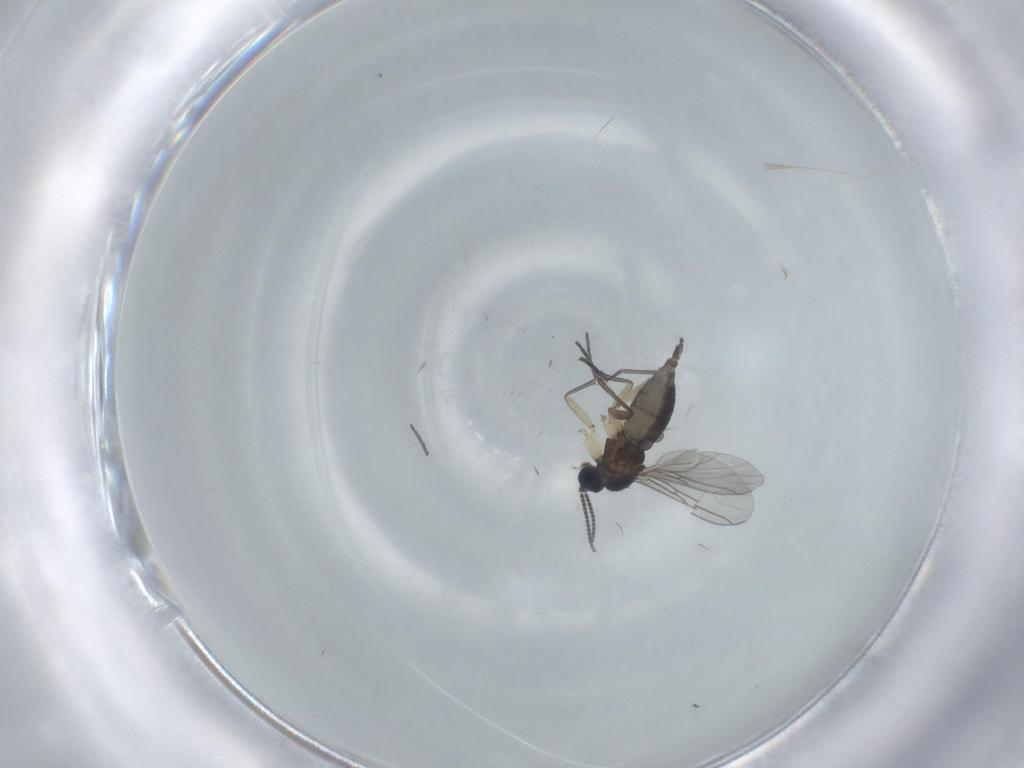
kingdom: Animalia
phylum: Arthropoda
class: Insecta
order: Diptera
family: Sciaridae
